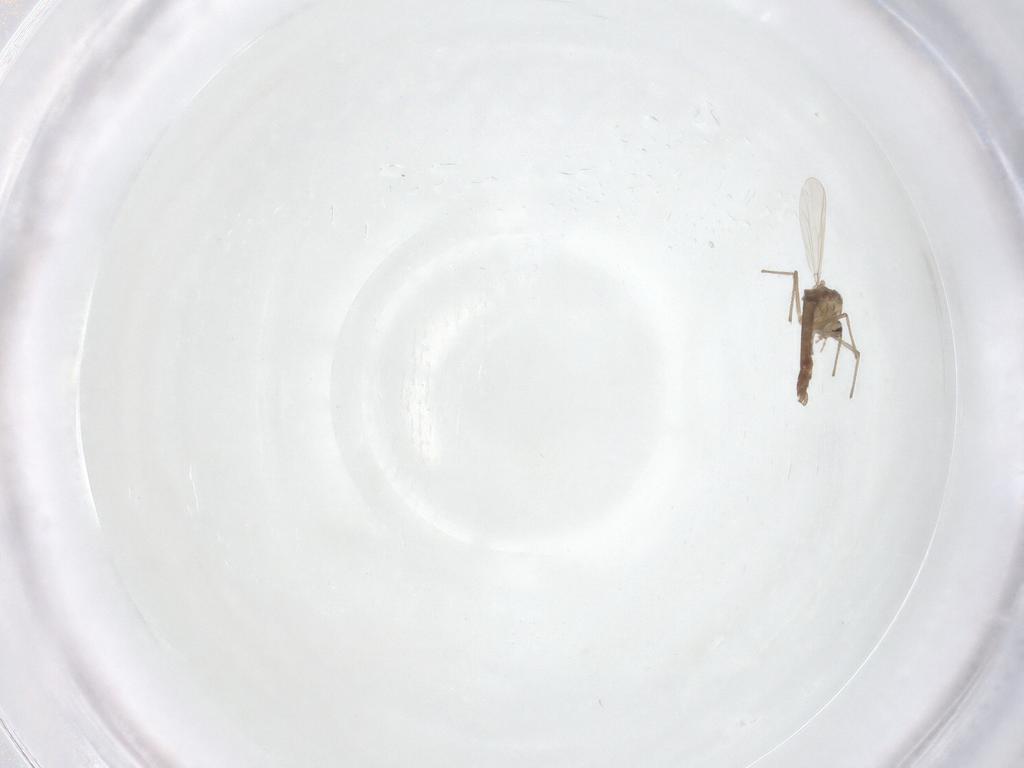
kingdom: Animalia
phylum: Arthropoda
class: Insecta
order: Diptera
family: Chironomidae
